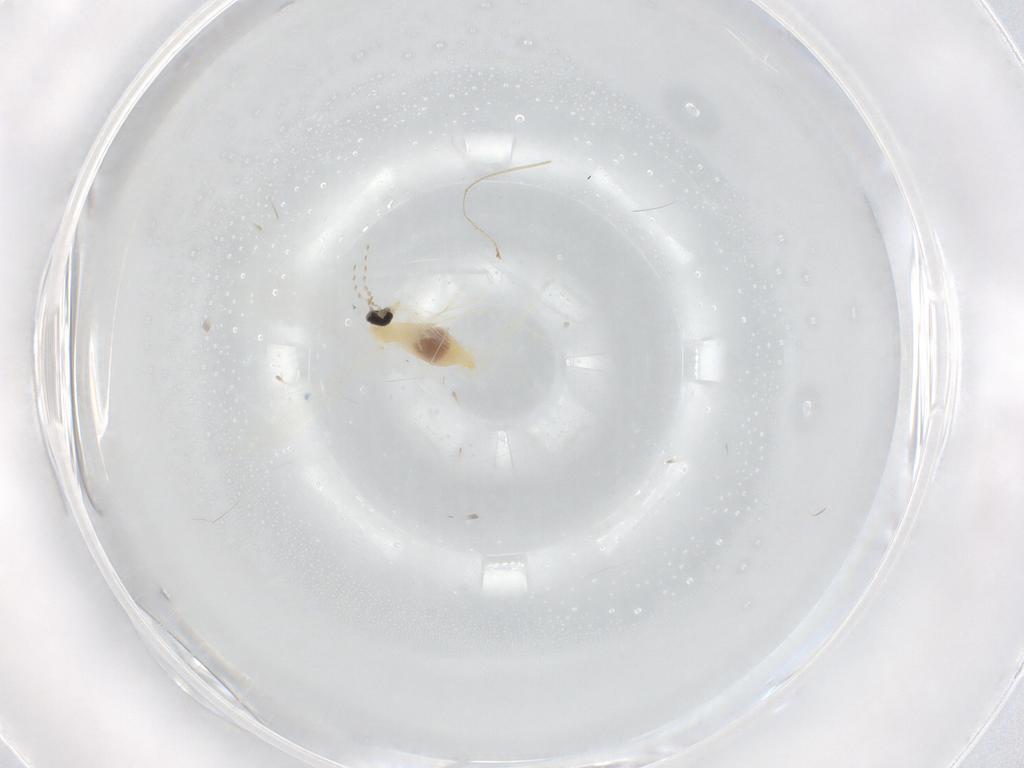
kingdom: Animalia
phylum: Arthropoda
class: Insecta
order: Diptera
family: Cecidomyiidae
